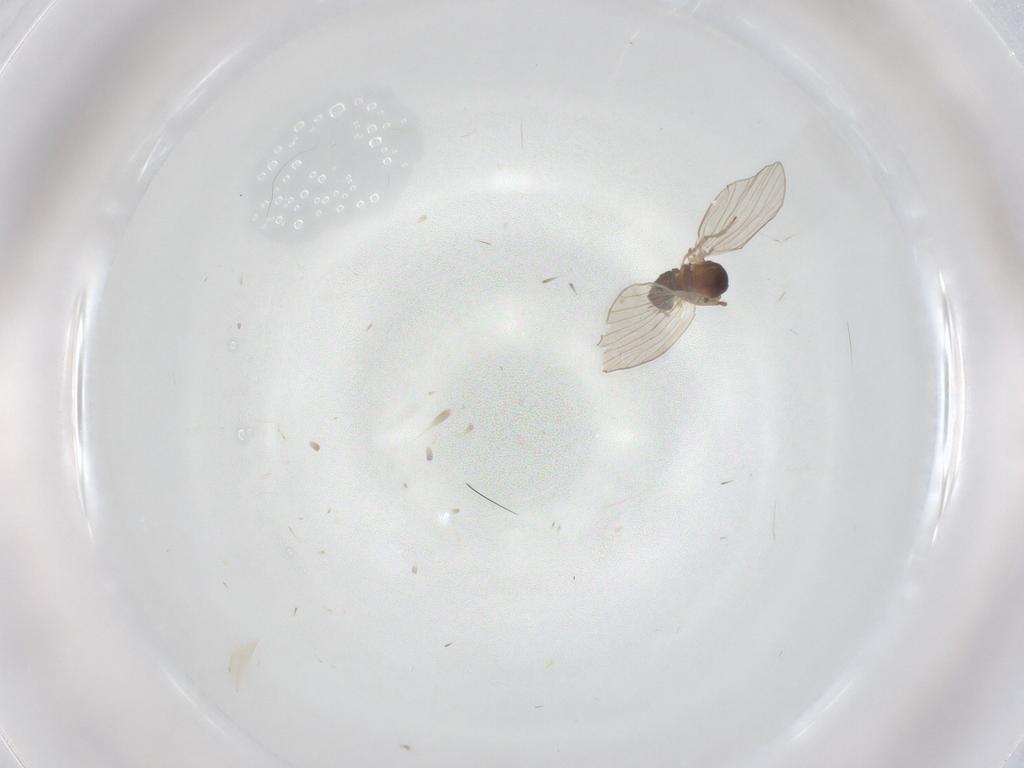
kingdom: Animalia
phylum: Arthropoda
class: Insecta
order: Diptera
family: Psychodidae
